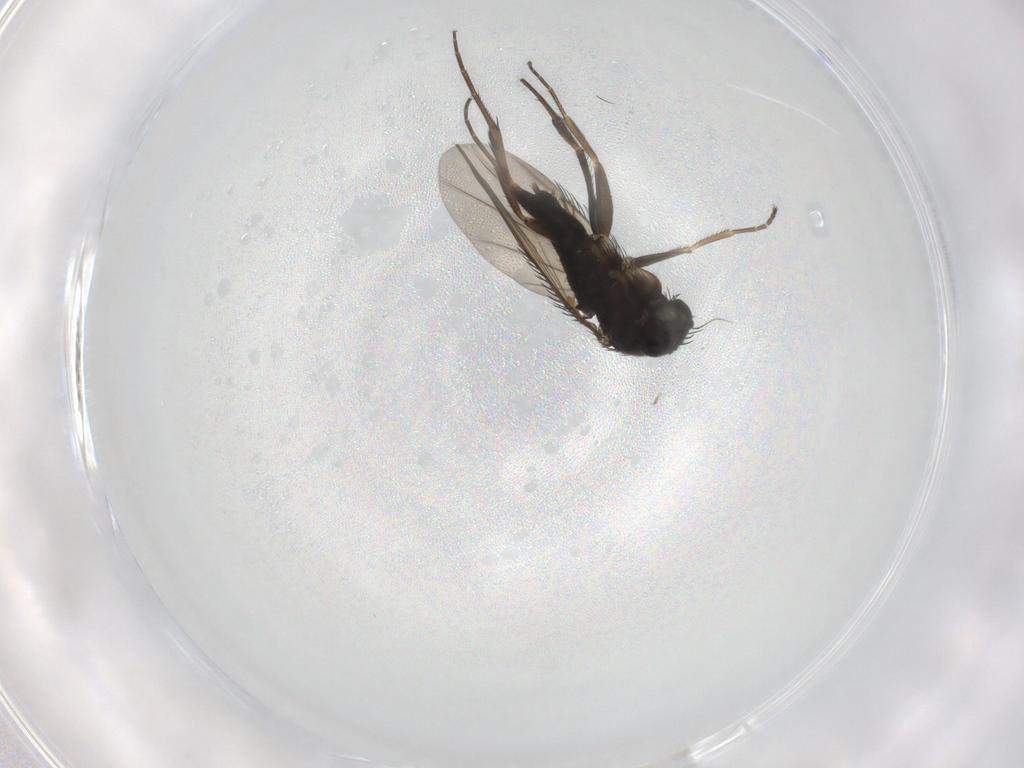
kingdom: Animalia
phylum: Arthropoda
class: Insecta
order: Diptera
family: Phoridae
